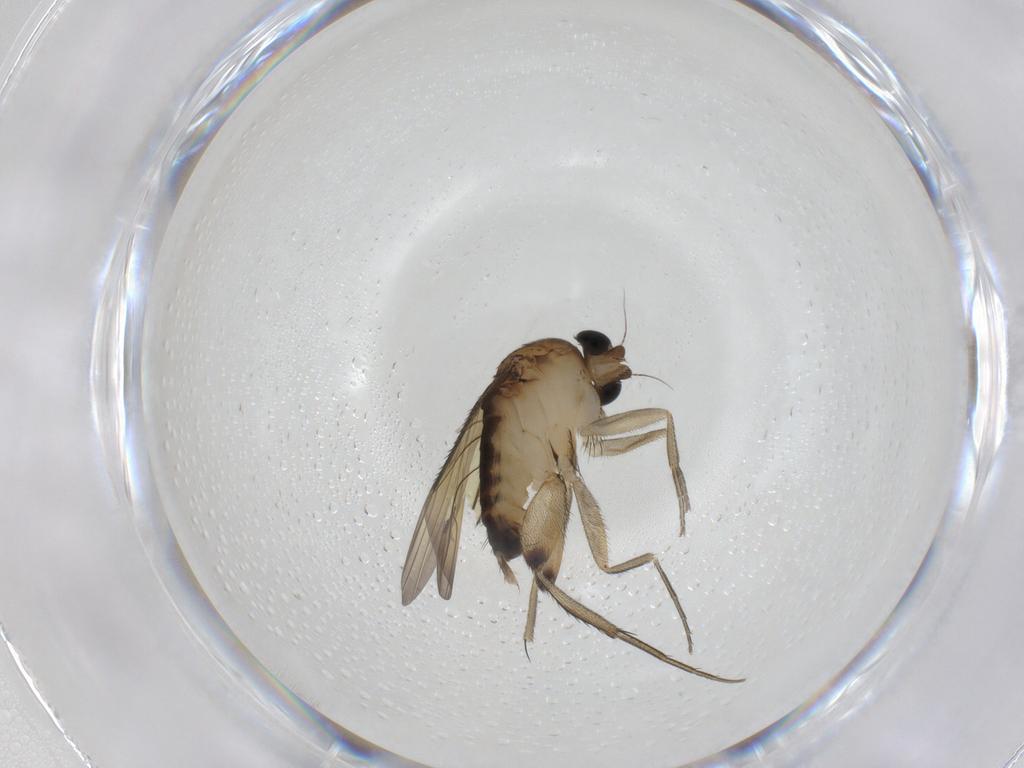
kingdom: Animalia
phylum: Arthropoda
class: Insecta
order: Diptera
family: Phoridae
